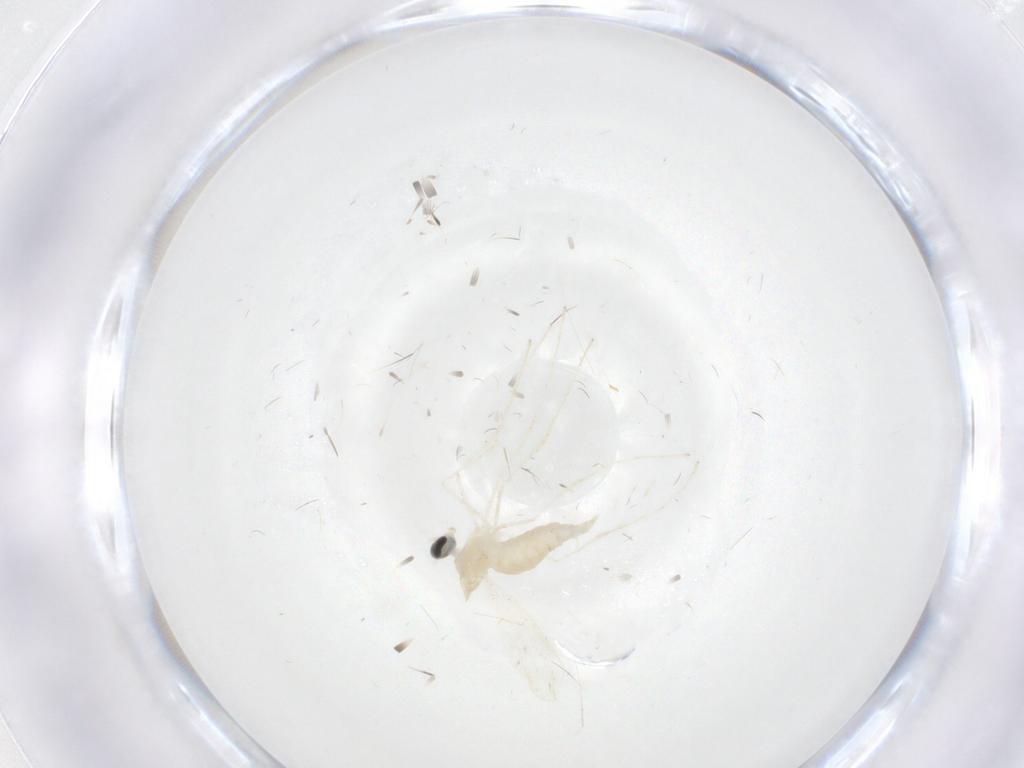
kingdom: Animalia
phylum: Arthropoda
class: Insecta
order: Diptera
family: Cecidomyiidae
